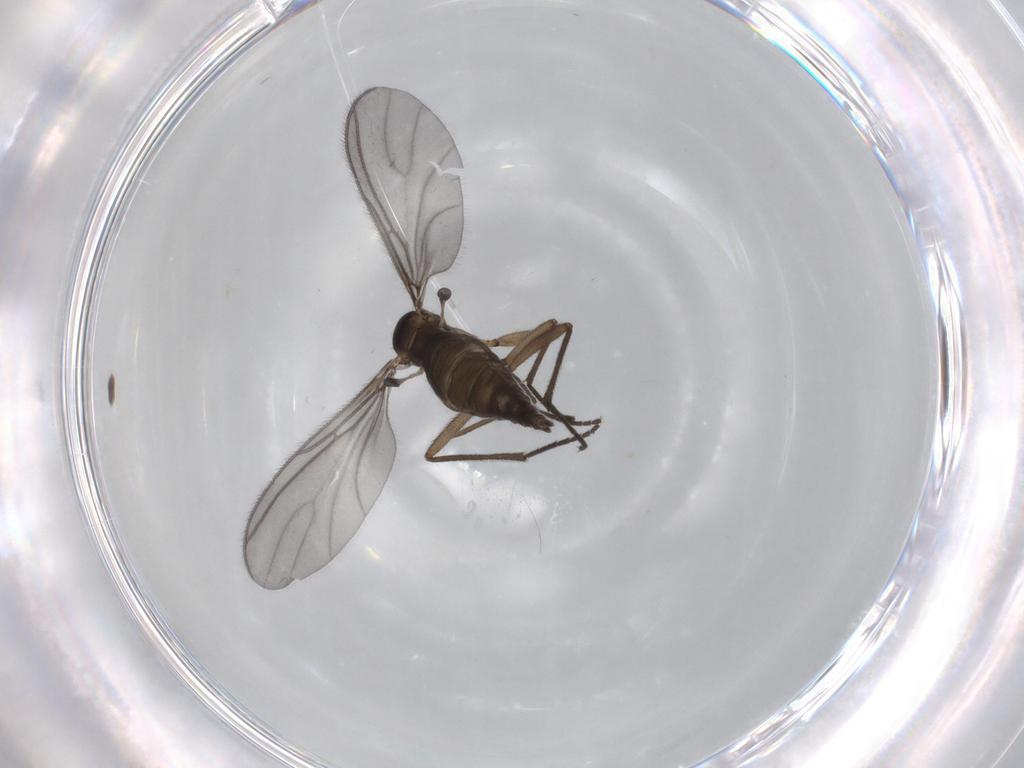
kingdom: Animalia
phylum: Arthropoda
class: Insecta
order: Diptera
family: Sciaridae
